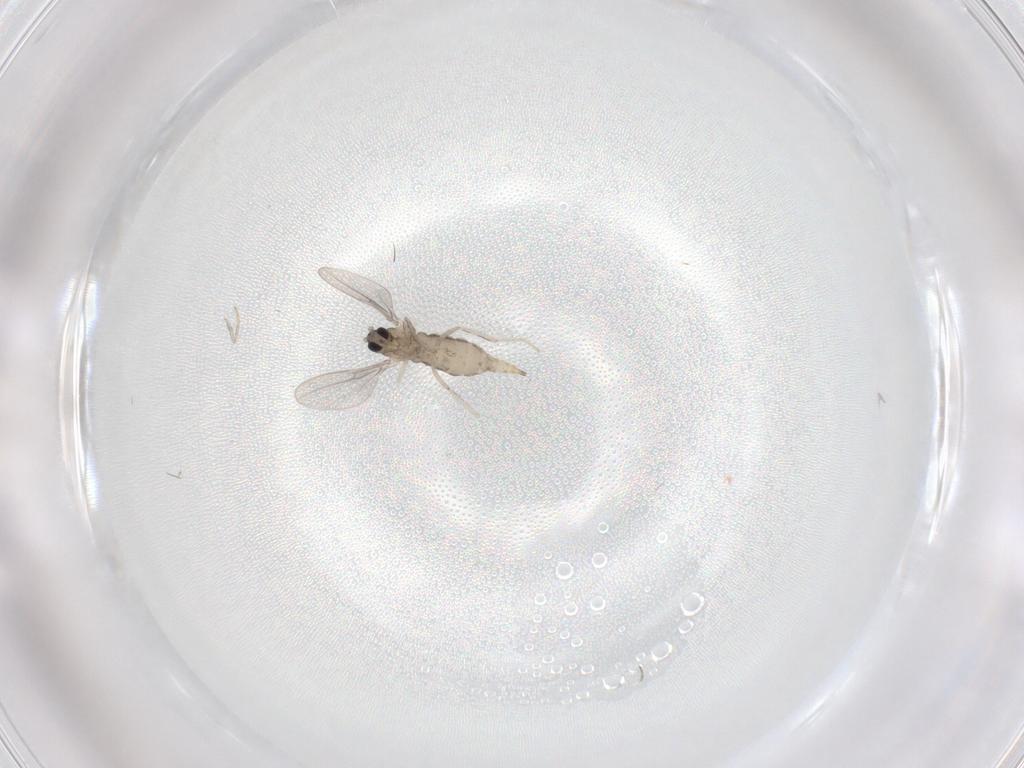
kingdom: Animalia
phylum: Arthropoda
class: Insecta
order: Diptera
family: Cecidomyiidae
